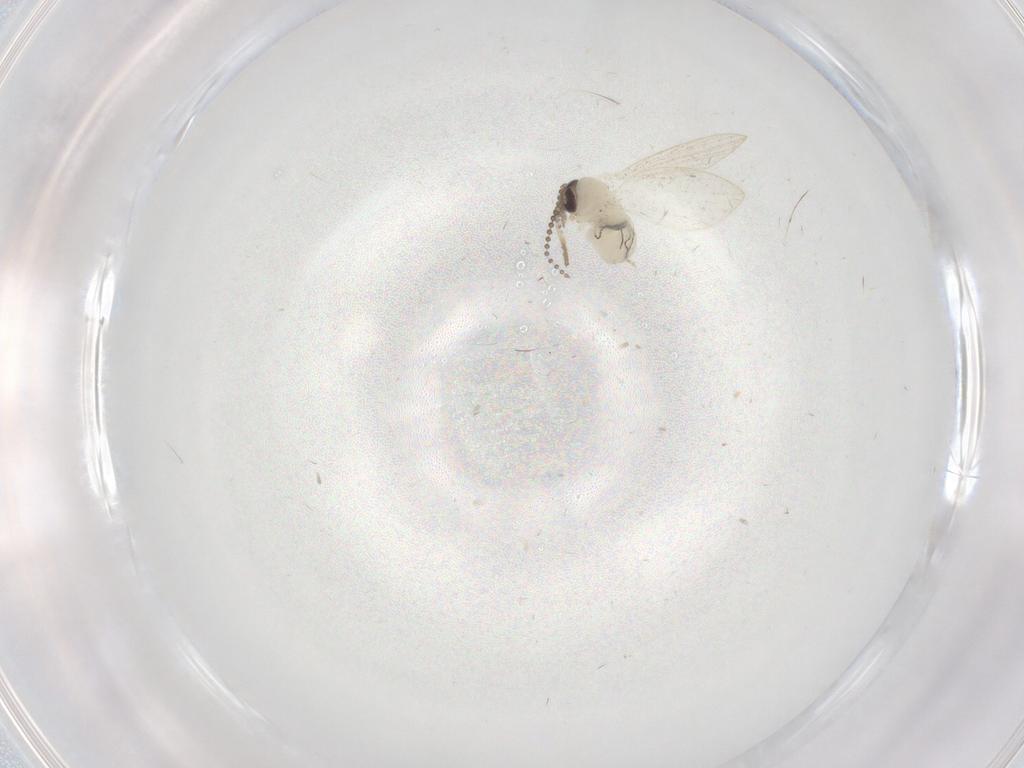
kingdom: Animalia
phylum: Arthropoda
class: Insecta
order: Diptera
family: Psychodidae
